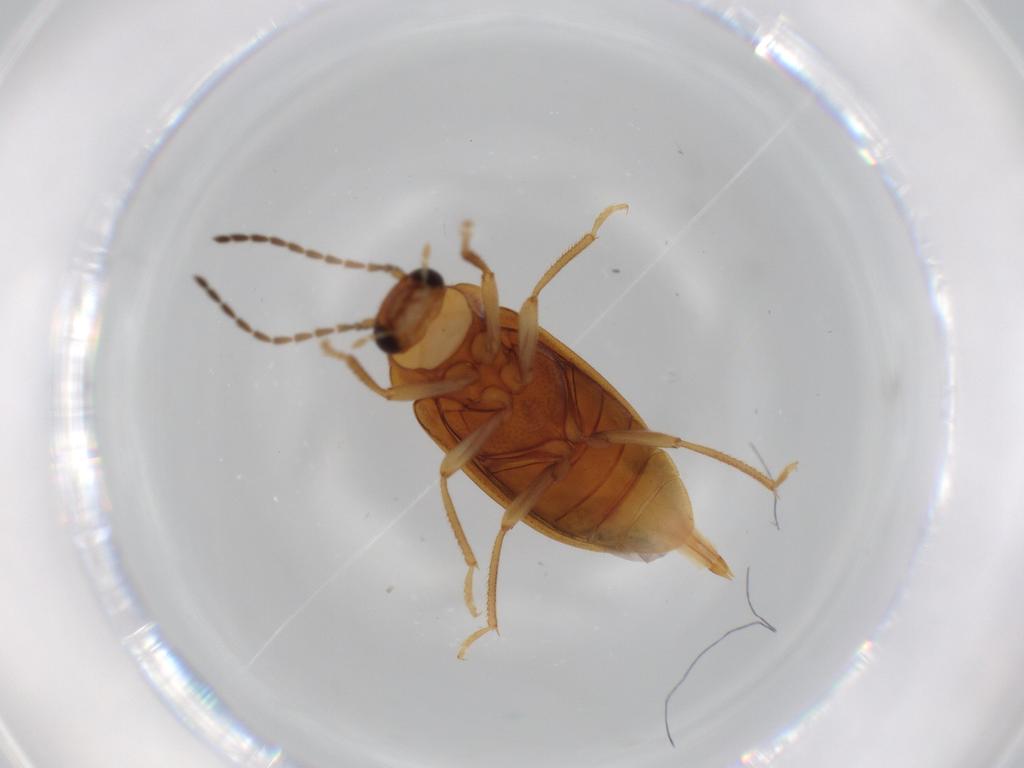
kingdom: Animalia
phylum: Arthropoda
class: Insecta
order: Coleoptera
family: Ptilodactylidae
